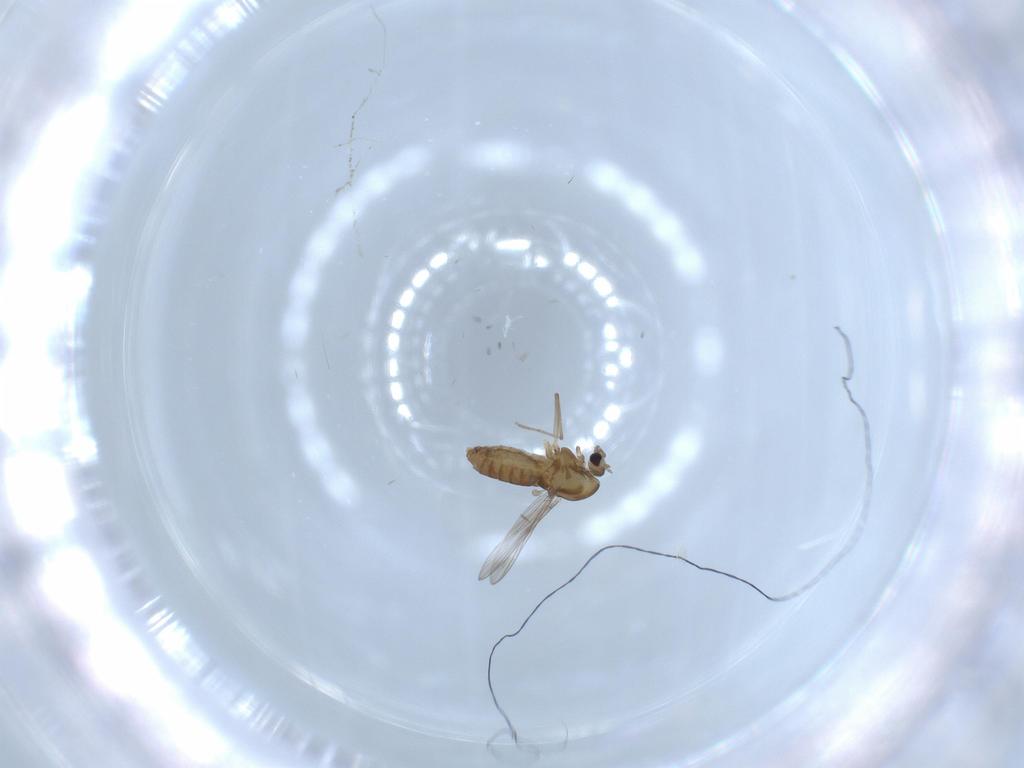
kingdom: Animalia
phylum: Arthropoda
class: Insecta
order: Diptera
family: Chironomidae
